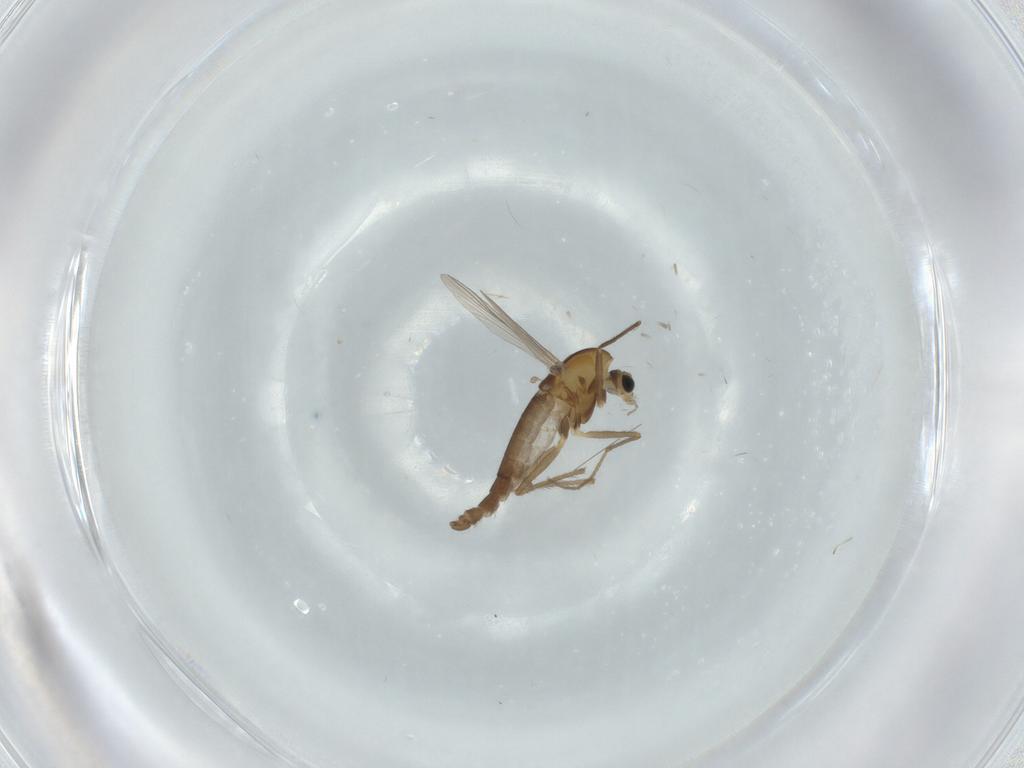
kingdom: Animalia
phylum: Arthropoda
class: Insecta
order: Diptera
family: Chironomidae
